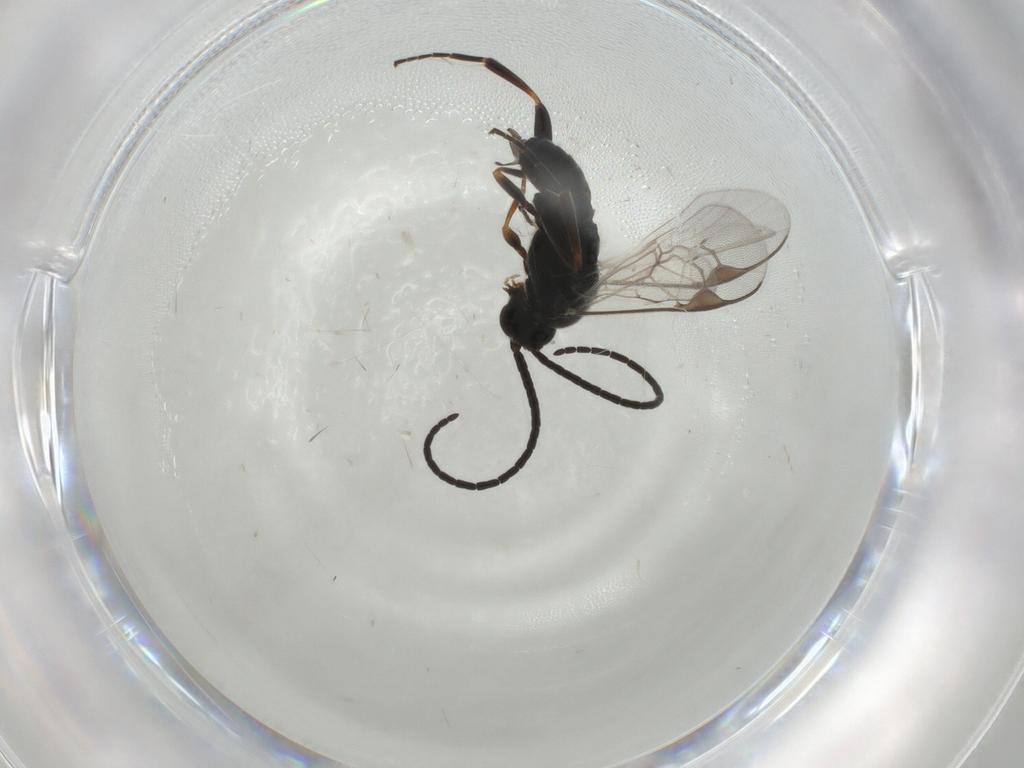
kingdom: Animalia
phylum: Arthropoda
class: Insecta
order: Hymenoptera
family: Braconidae
